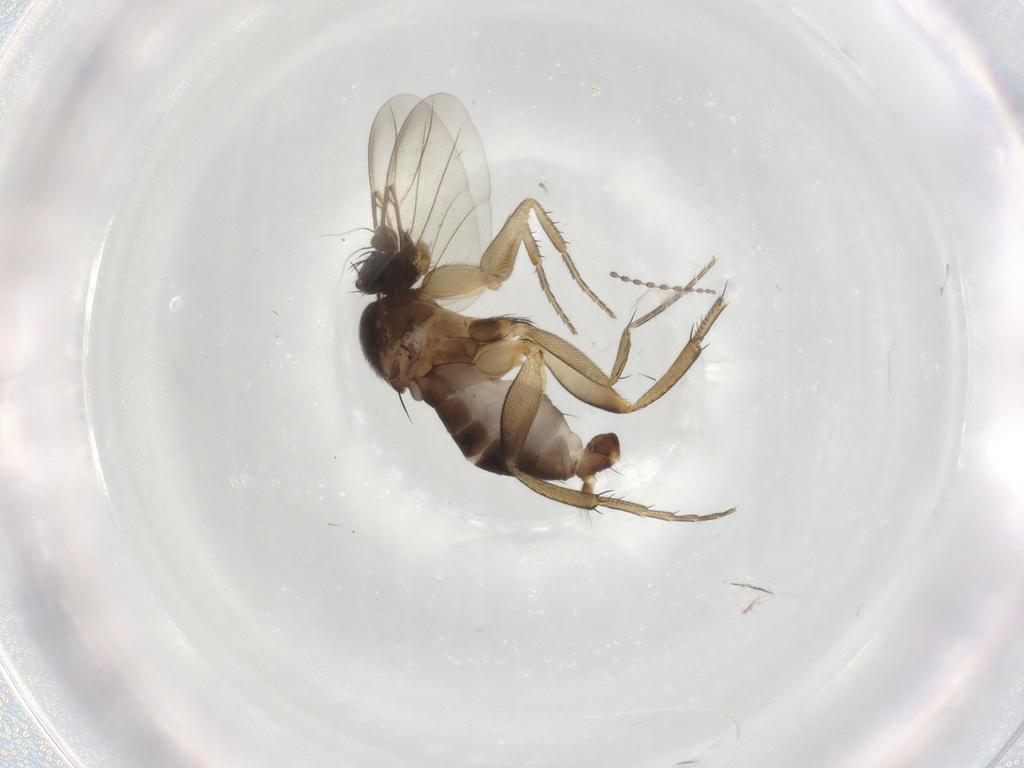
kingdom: Animalia
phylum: Arthropoda
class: Insecta
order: Diptera
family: Phoridae
